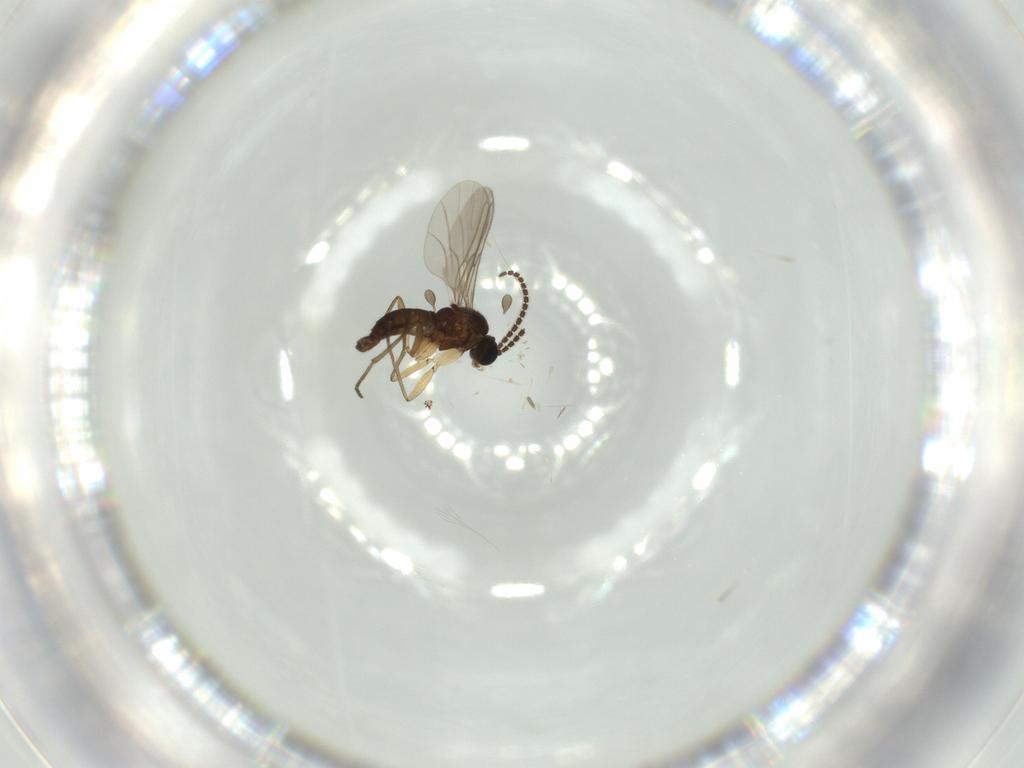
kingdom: Animalia
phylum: Arthropoda
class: Insecta
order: Diptera
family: Sciaridae
